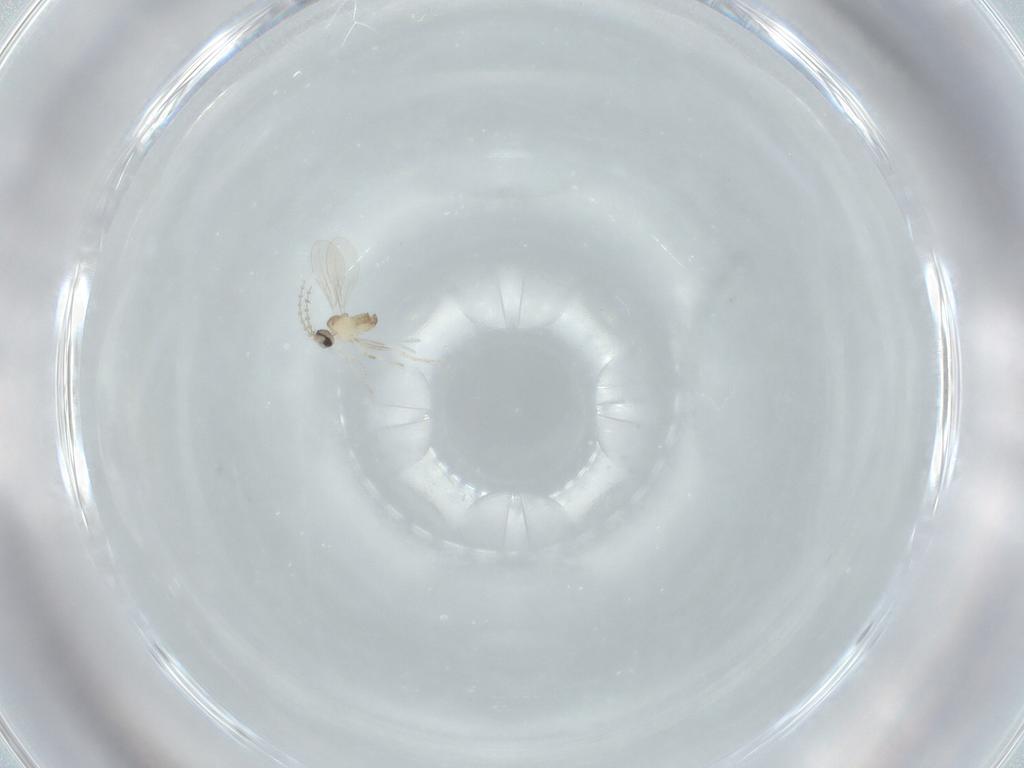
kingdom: Animalia
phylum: Arthropoda
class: Insecta
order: Diptera
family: Cecidomyiidae
